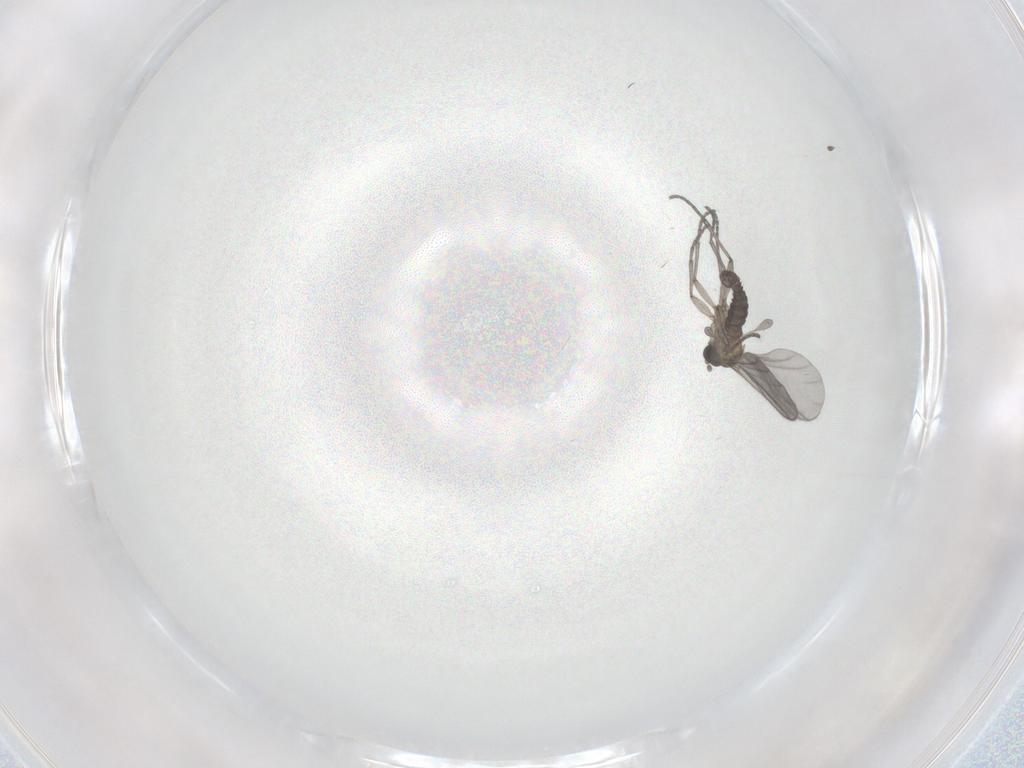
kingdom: Animalia
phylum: Arthropoda
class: Insecta
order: Diptera
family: Sciaridae
